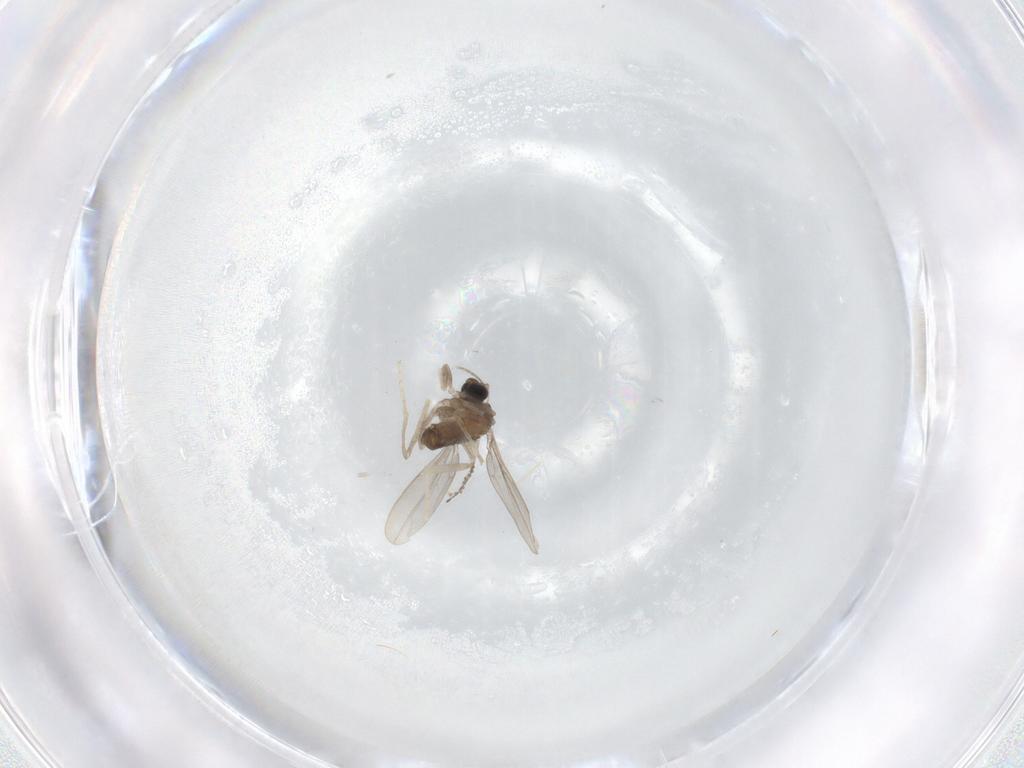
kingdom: Animalia
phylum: Arthropoda
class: Insecta
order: Diptera
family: Cecidomyiidae
